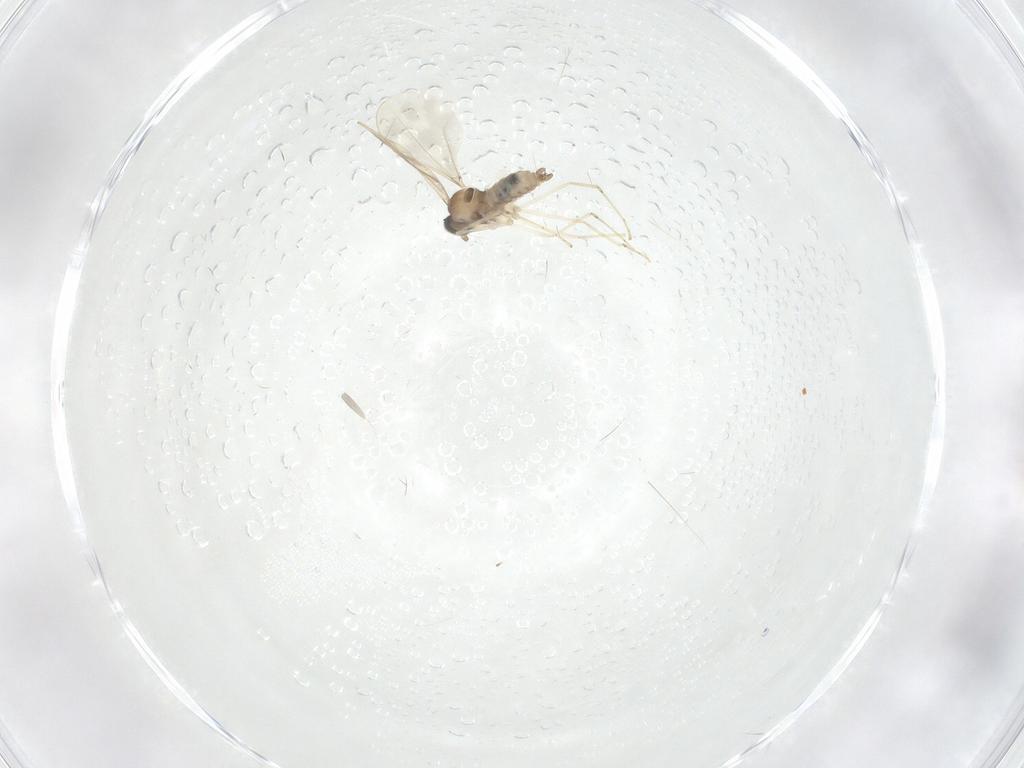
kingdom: Animalia
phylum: Arthropoda
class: Insecta
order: Diptera
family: Cecidomyiidae
